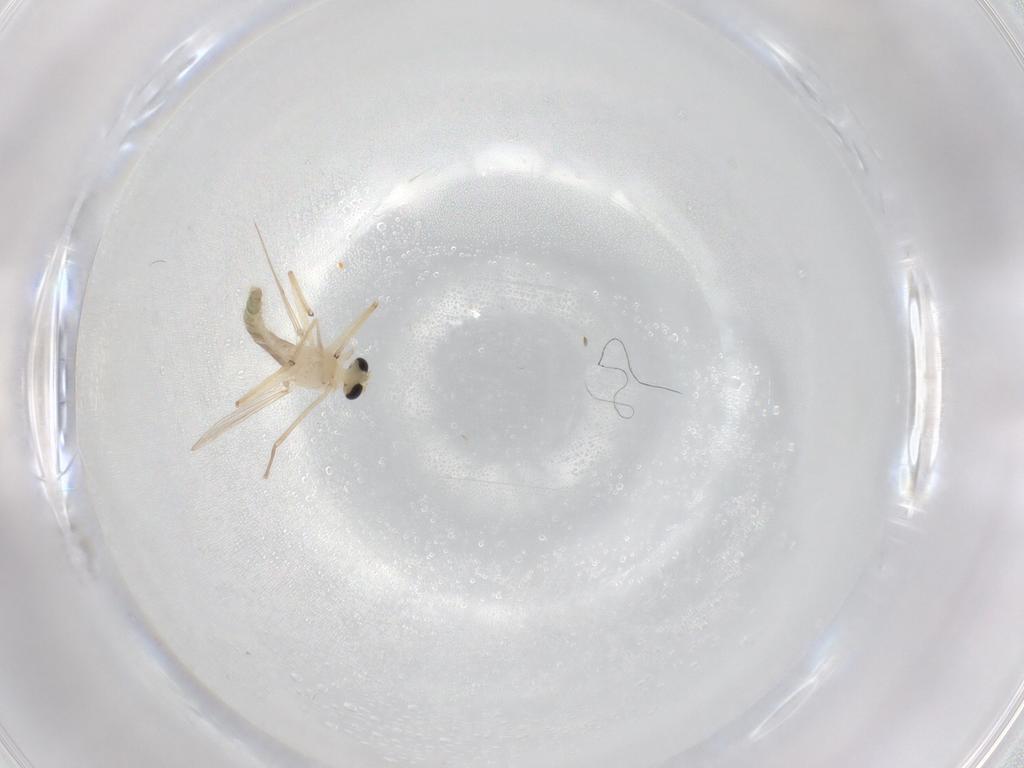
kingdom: Animalia
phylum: Arthropoda
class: Insecta
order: Diptera
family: Chironomidae
